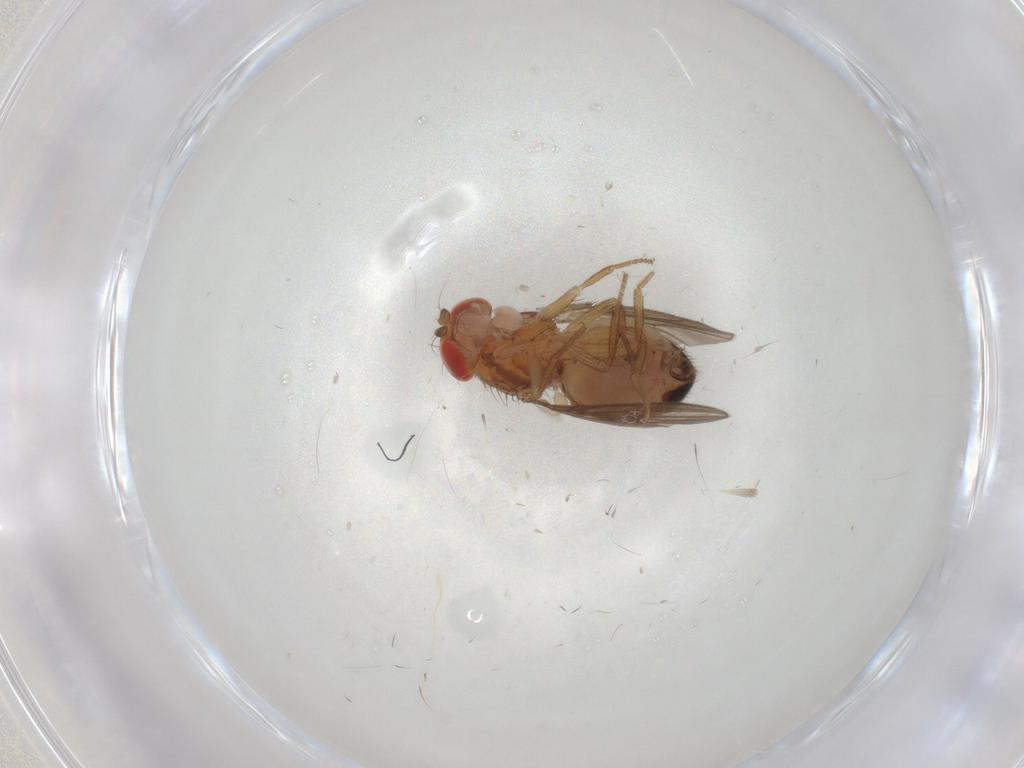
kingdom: Animalia
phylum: Arthropoda
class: Insecta
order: Diptera
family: Drosophilidae
